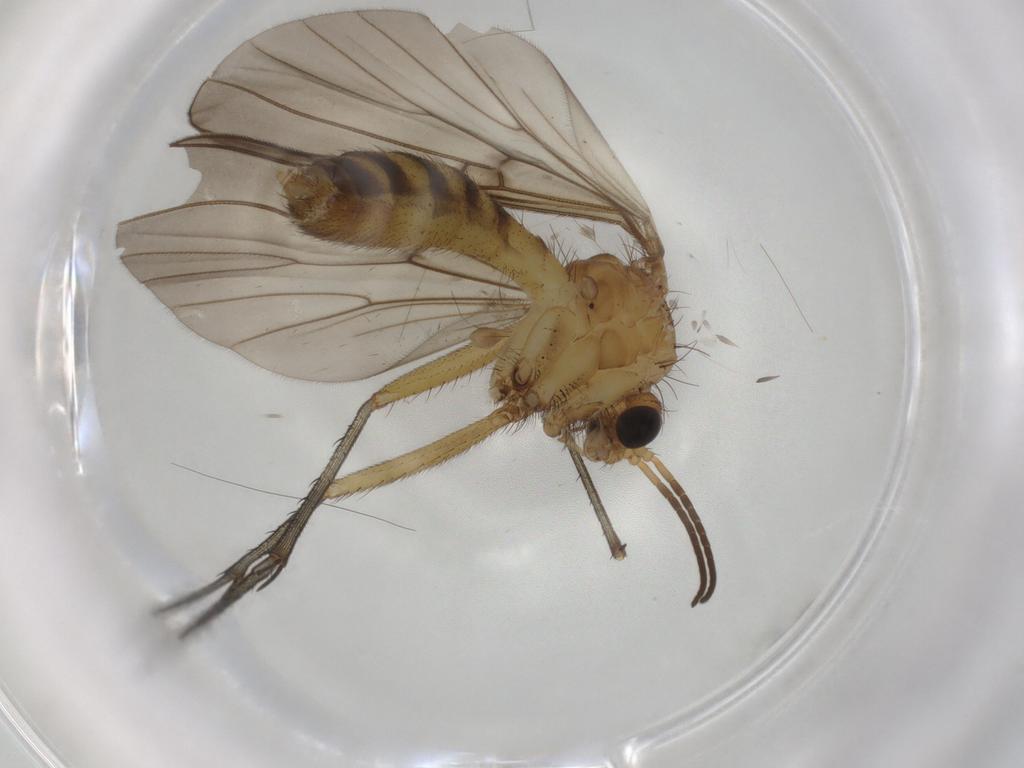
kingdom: Animalia
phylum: Arthropoda
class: Insecta
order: Diptera
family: Mycetophilidae
